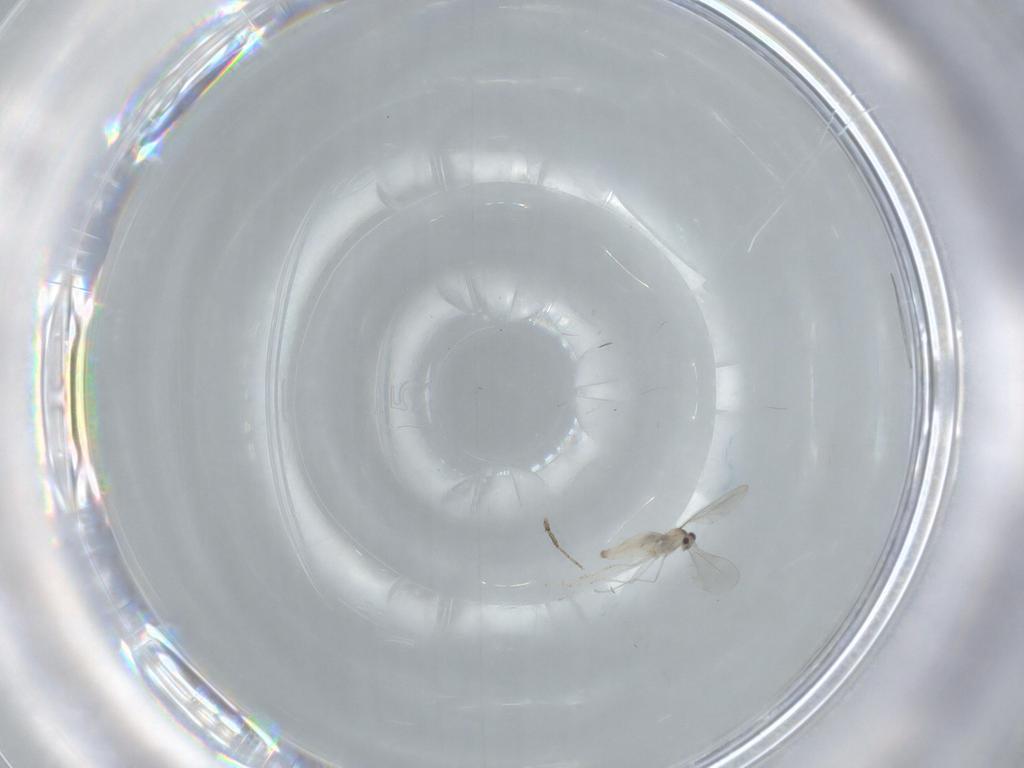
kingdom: Animalia
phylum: Arthropoda
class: Insecta
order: Diptera
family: Cecidomyiidae
